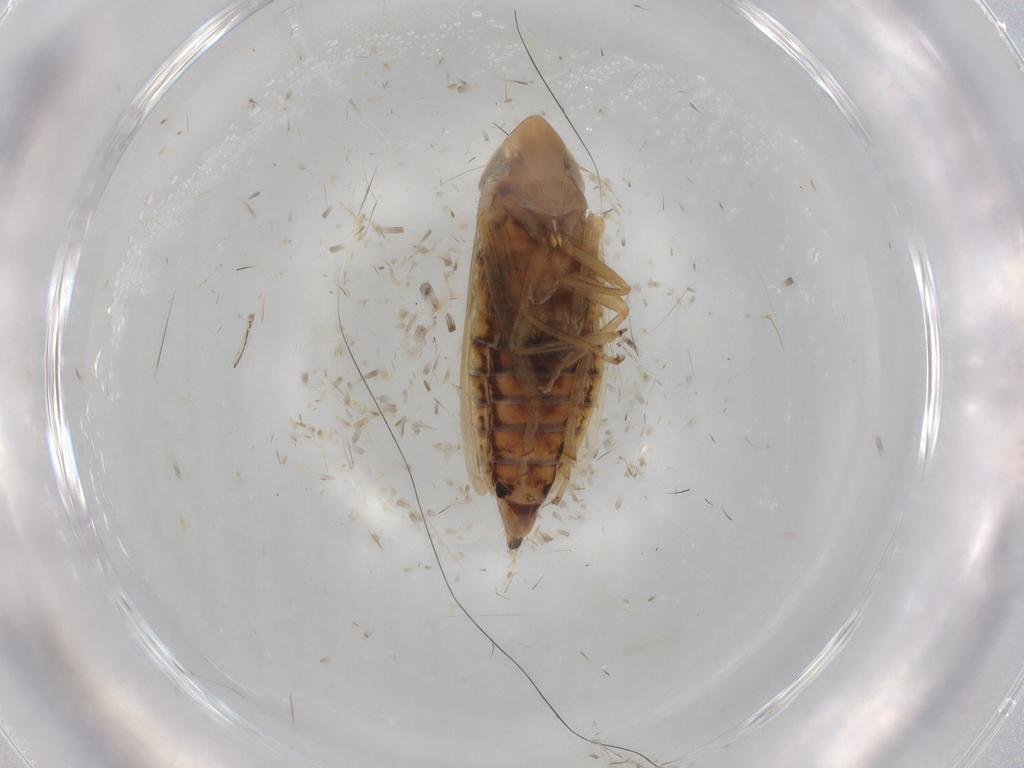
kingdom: Animalia
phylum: Arthropoda
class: Insecta
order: Hemiptera
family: Cicadellidae
